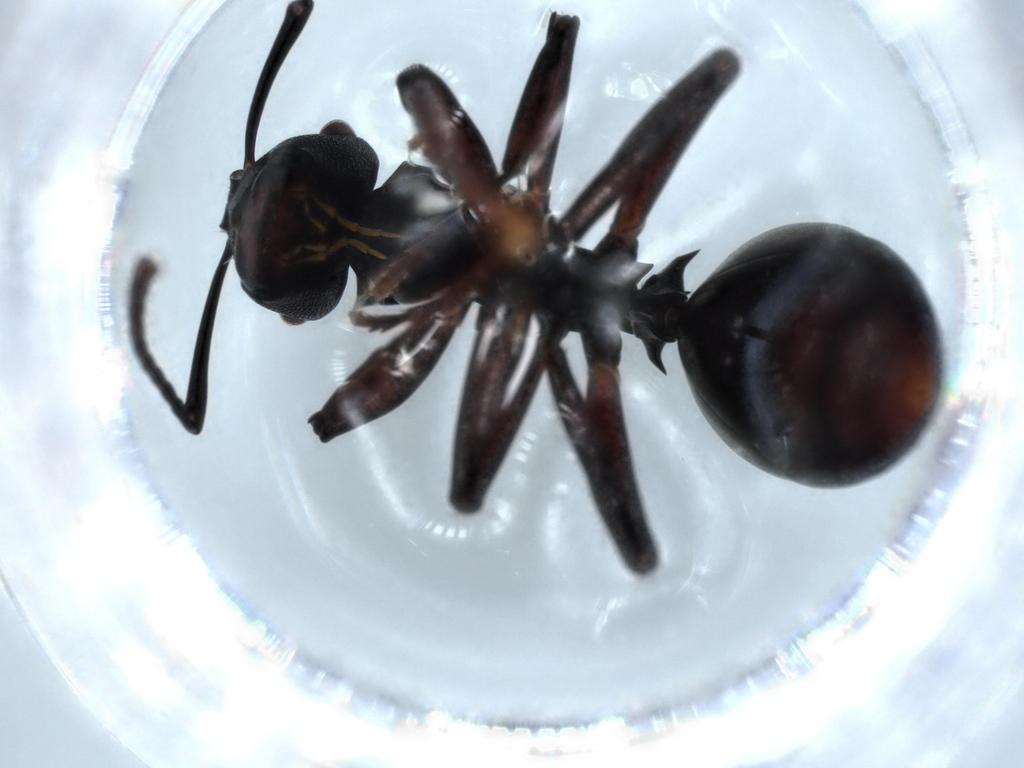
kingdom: Animalia
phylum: Arthropoda
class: Insecta
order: Hymenoptera
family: Formicidae
